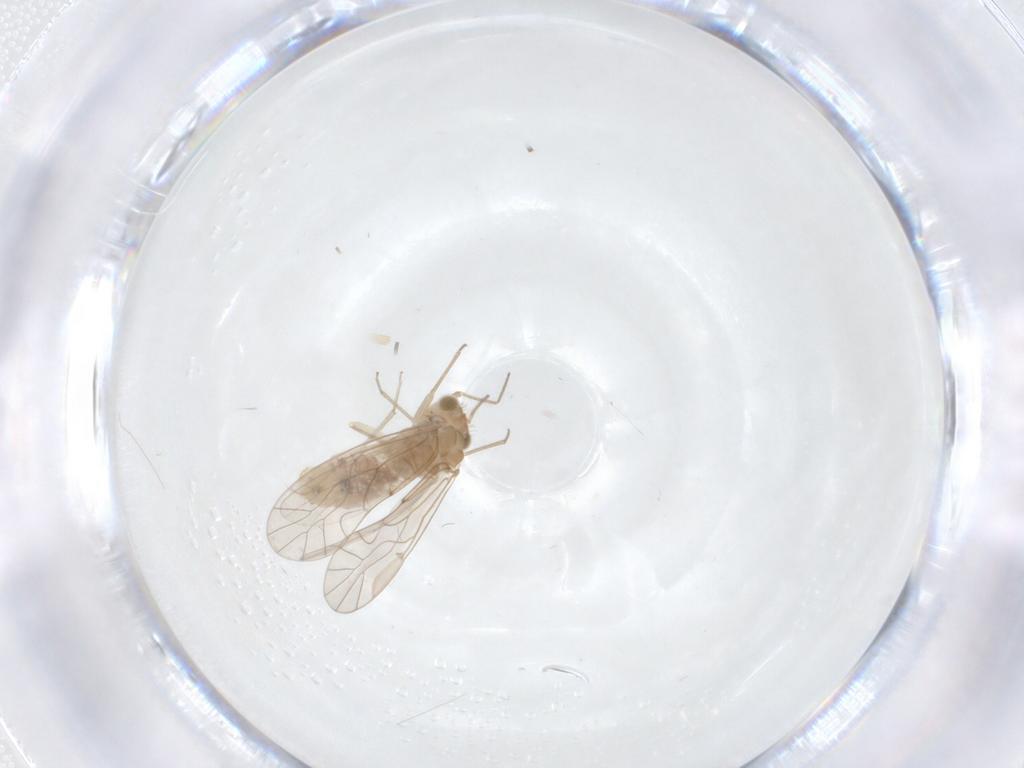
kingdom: Animalia
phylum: Arthropoda
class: Insecta
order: Psocodea
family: Lachesillidae
